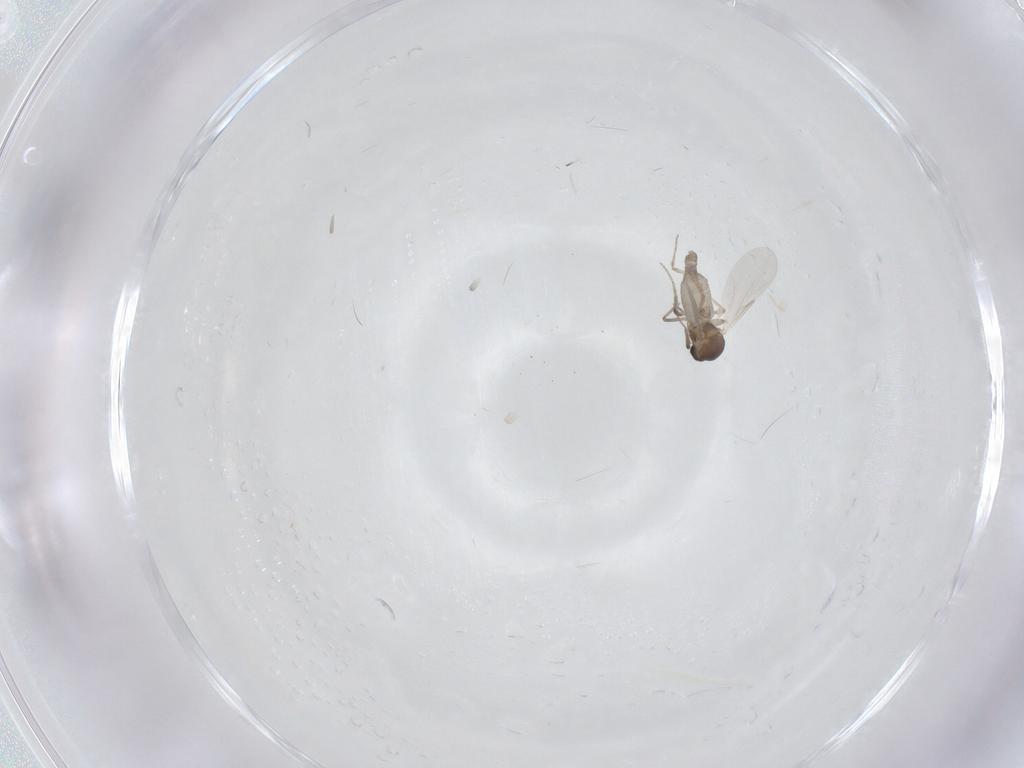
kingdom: Animalia
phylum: Arthropoda
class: Insecta
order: Diptera
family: Ceratopogonidae
